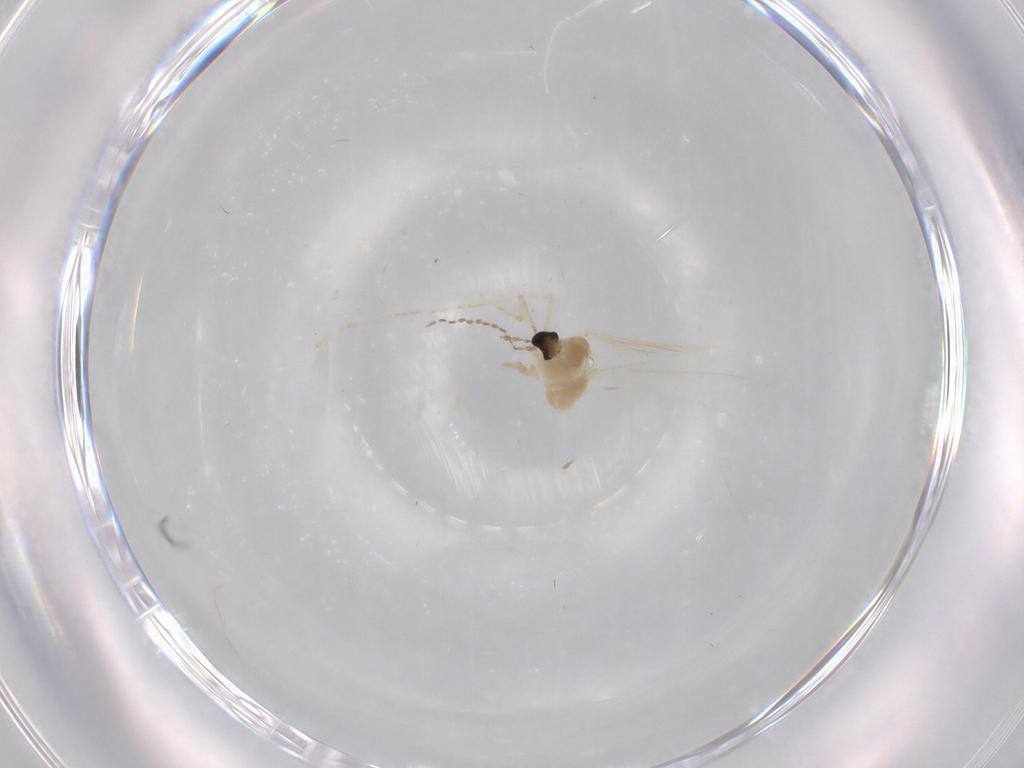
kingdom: Animalia
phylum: Arthropoda
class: Insecta
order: Diptera
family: Cecidomyiidae
